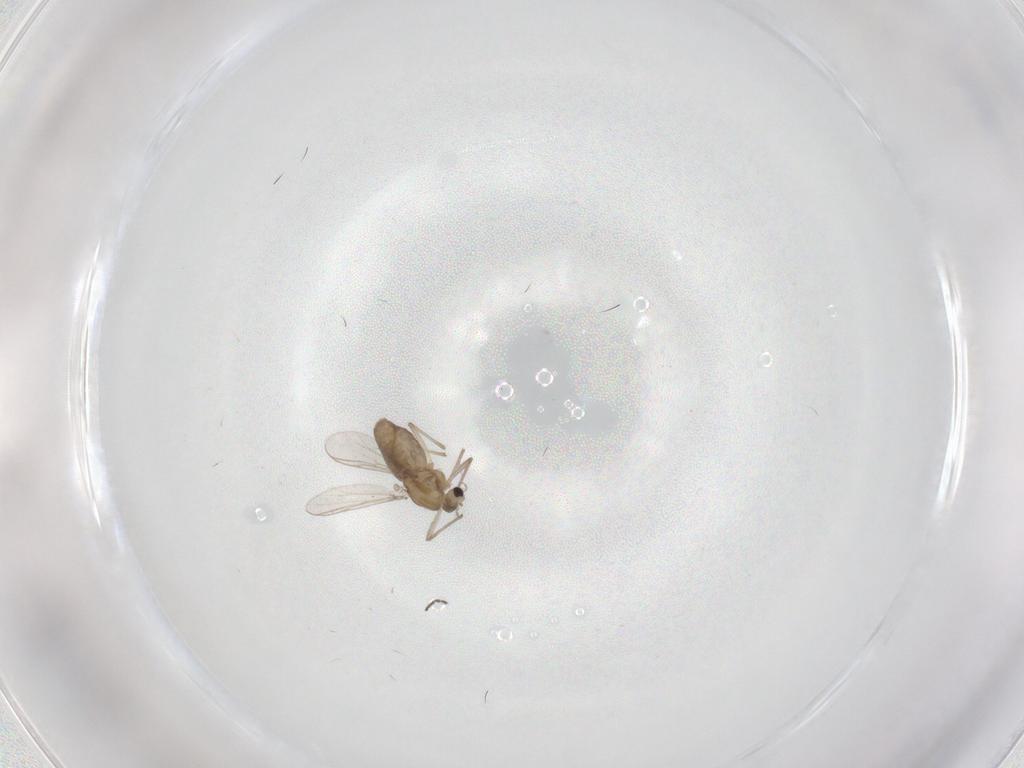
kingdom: Animalia
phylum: Arthropoda
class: Insecta
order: Diptera
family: Chironomidae
